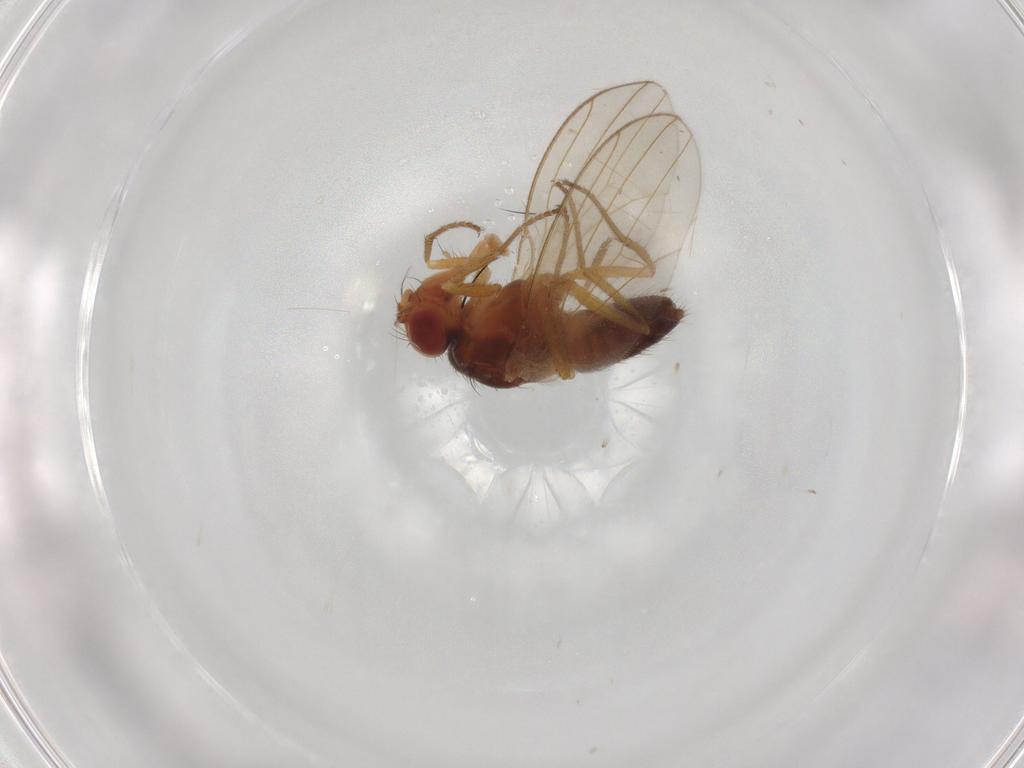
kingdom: Animalia
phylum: Arthropoda
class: Insecta
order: Diptera
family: Drosophilidae
